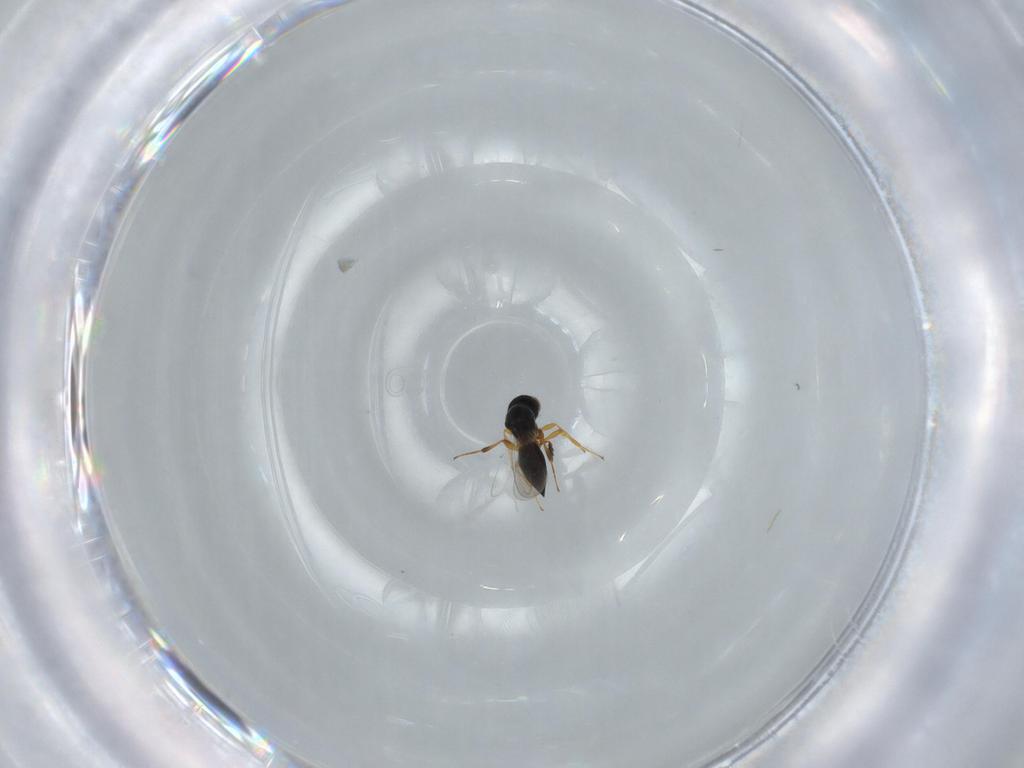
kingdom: Animalia
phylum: Arthropoda
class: Insecta
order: Hymenoptera
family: Platygastridae
